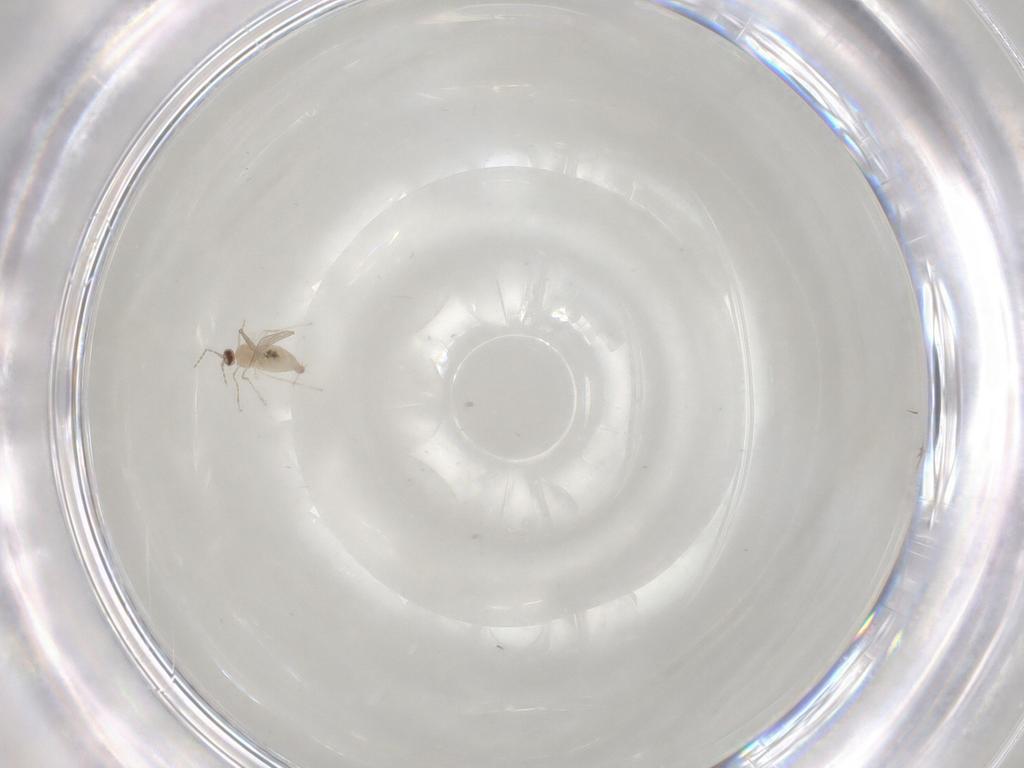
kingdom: Animalia
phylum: Arthropoda
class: Insecta
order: Diptera
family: Cecidomyiidae
